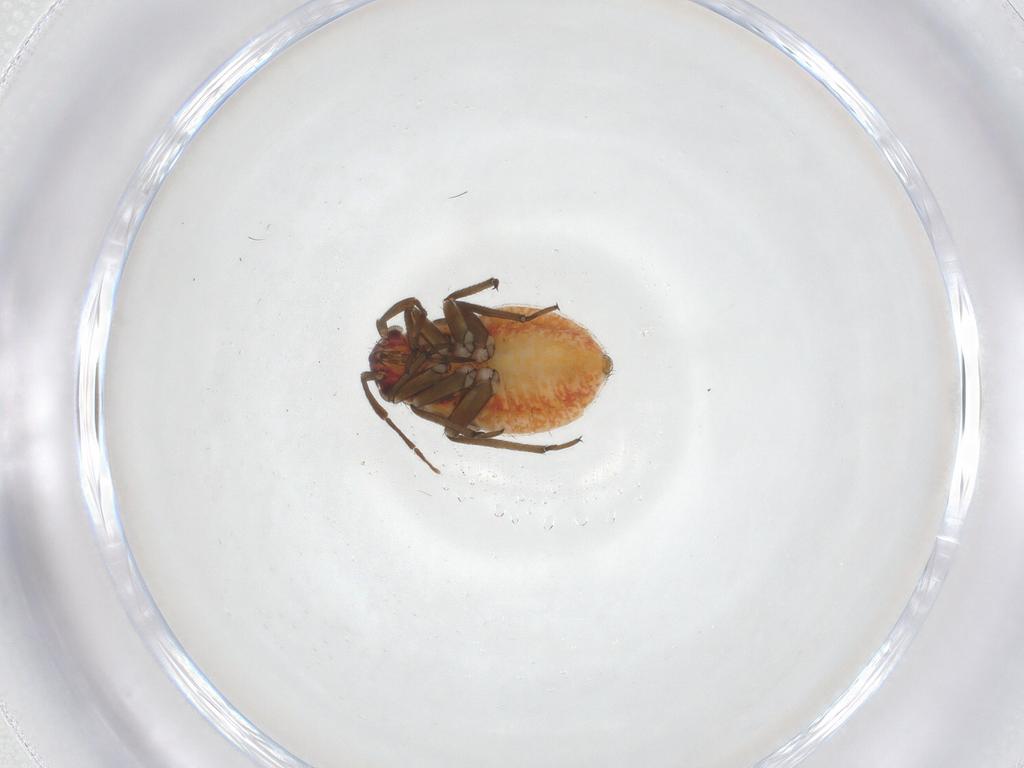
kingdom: Animalia
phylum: Arthropoda
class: Insecta
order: Hemiptera
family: Miridae
